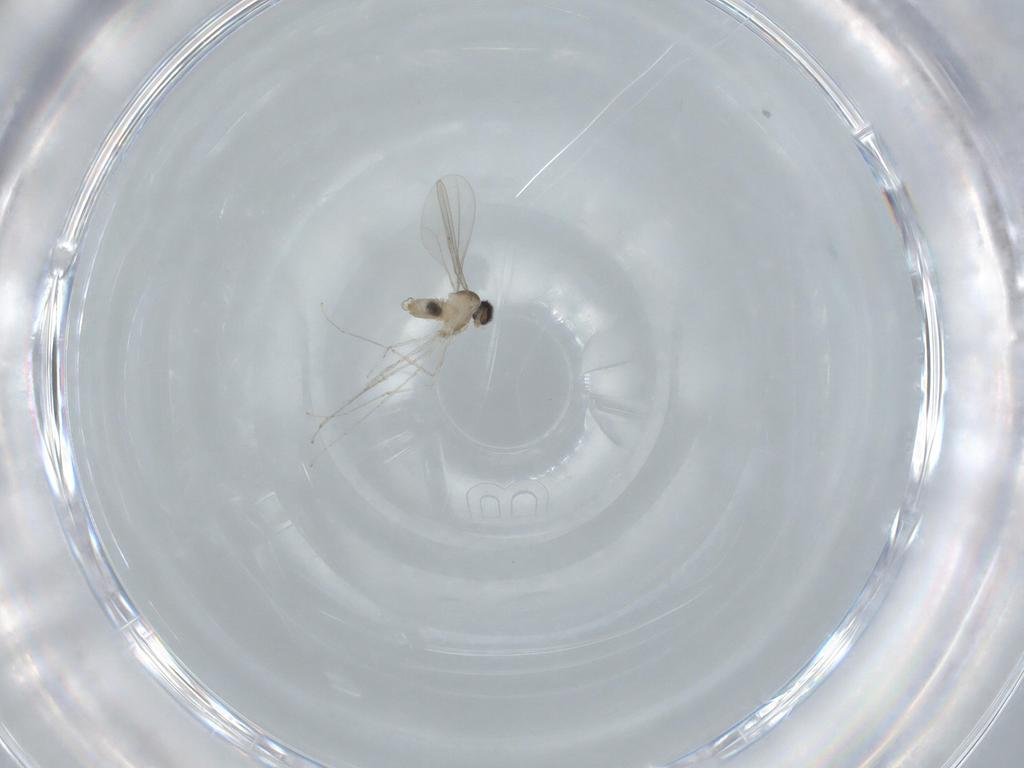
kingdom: Animalia
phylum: Arthropoda
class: Insecta
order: Diptera
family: Cecidomyiidae
